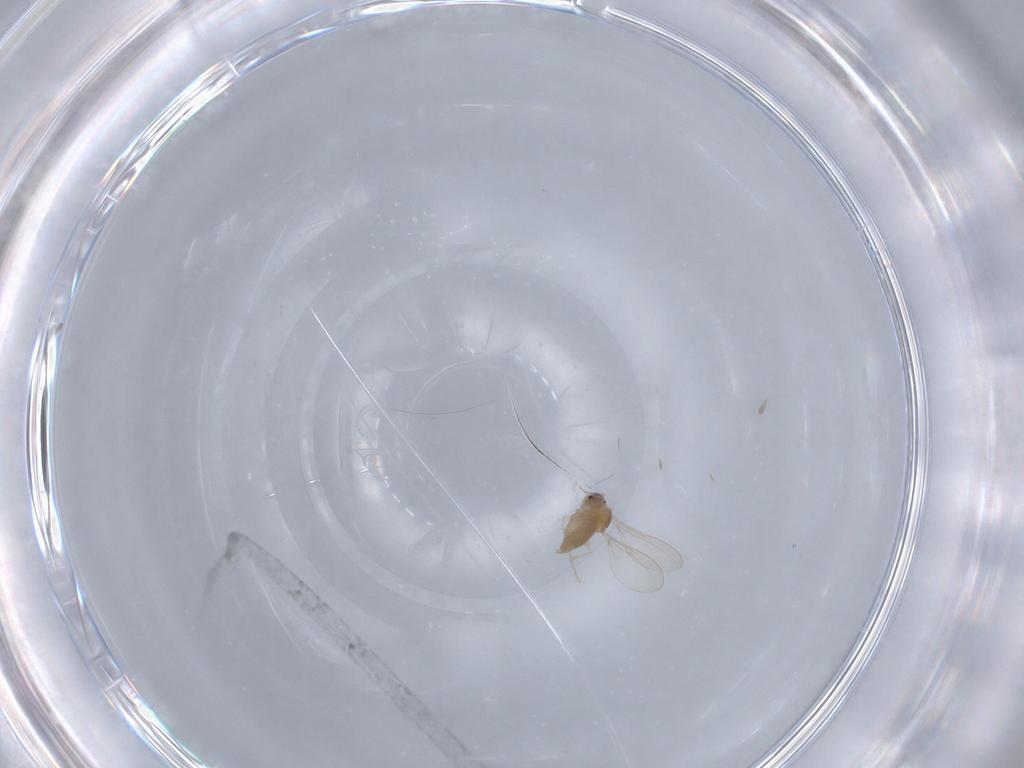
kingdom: Animalia
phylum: Arthropoda
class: Insecta
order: Diptera
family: Cecidomyiidae
